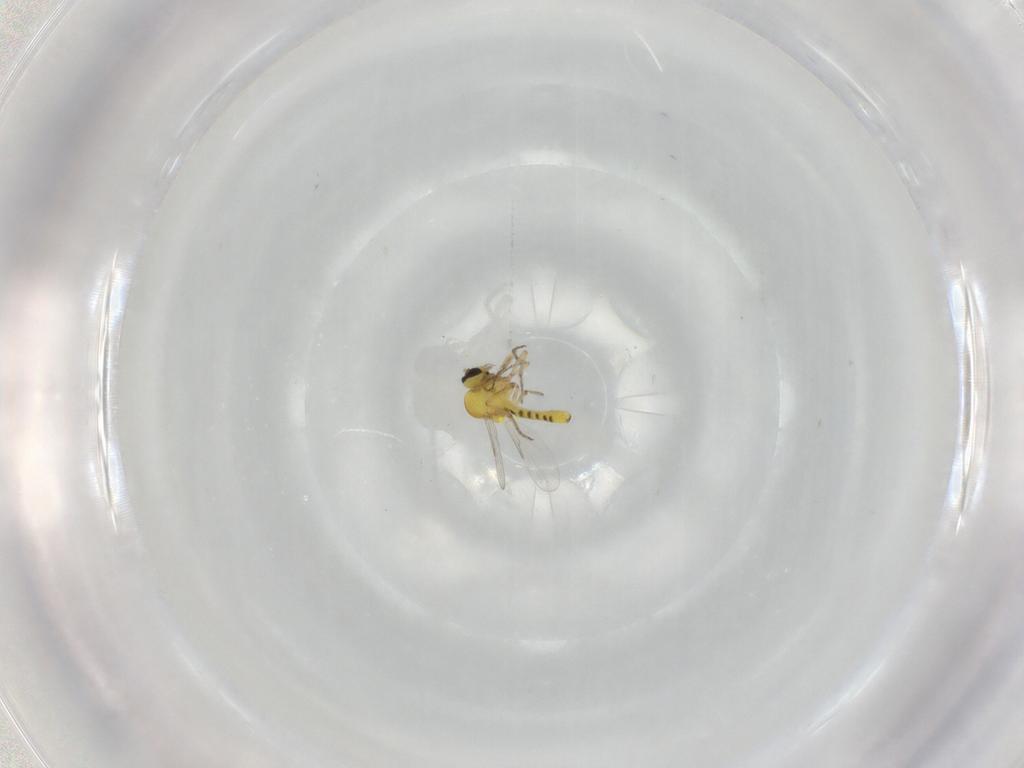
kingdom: Animalia
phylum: Arthropoda
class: Insecta
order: Diptera
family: Ceratopogonidae
